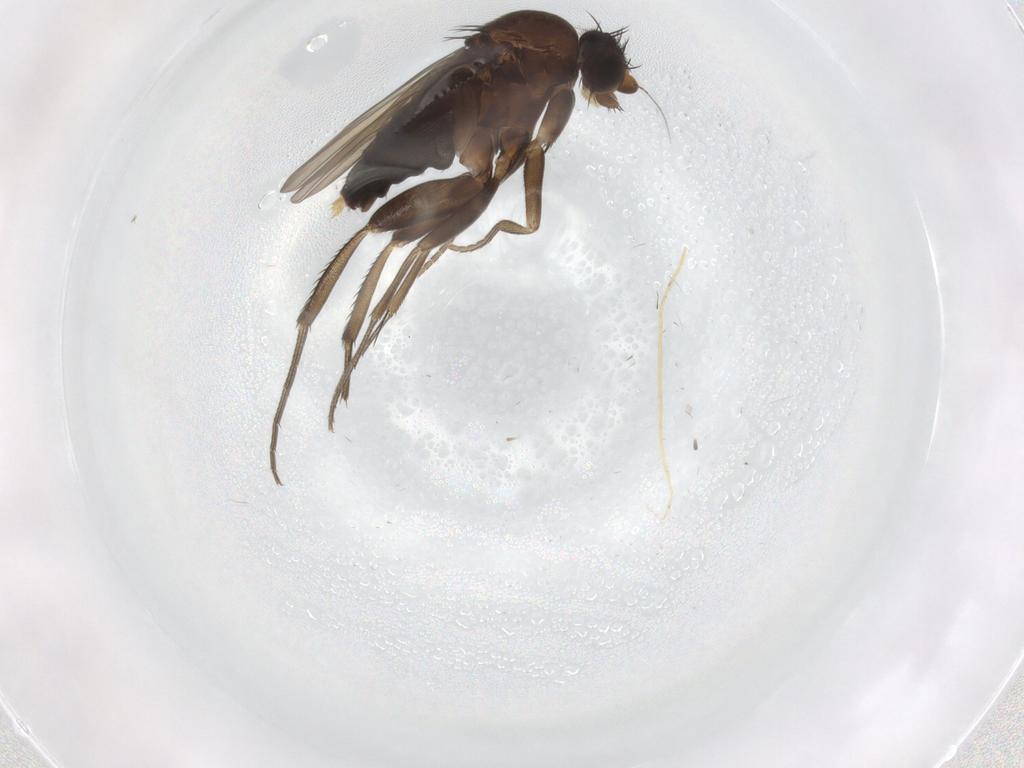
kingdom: Animalia
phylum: Arthropoda
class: Insecta
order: Diptera
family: Phoridae
